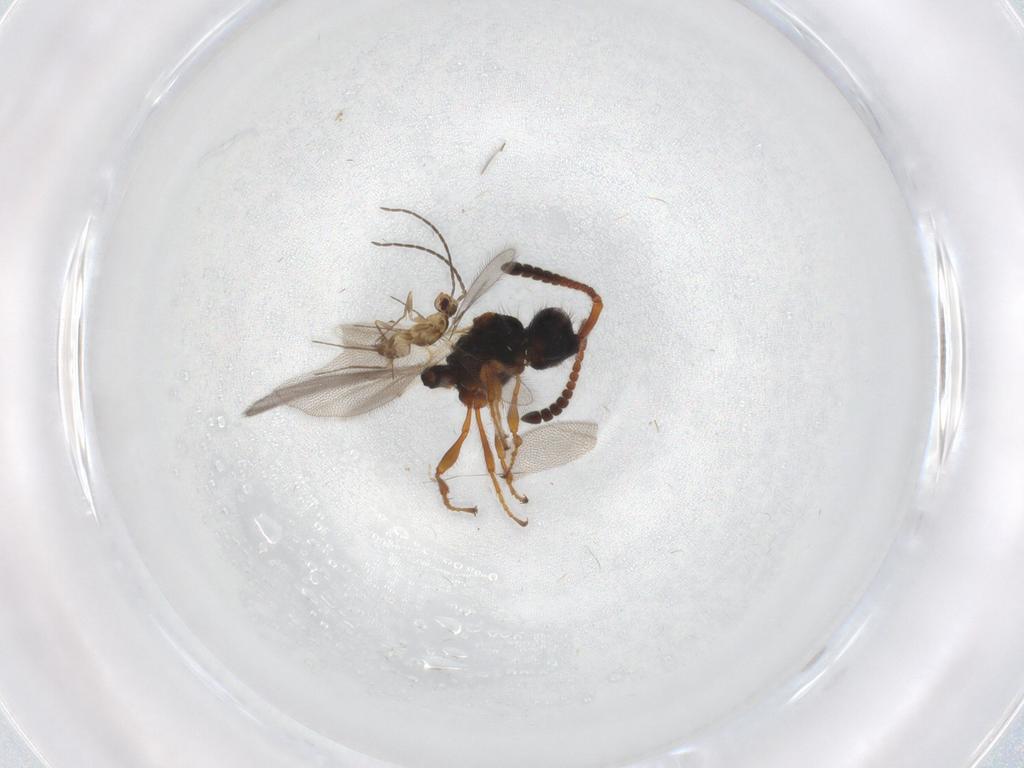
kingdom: Animalia
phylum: Arthropoda
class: Insecta
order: Hymenoptera
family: Diapriidae
